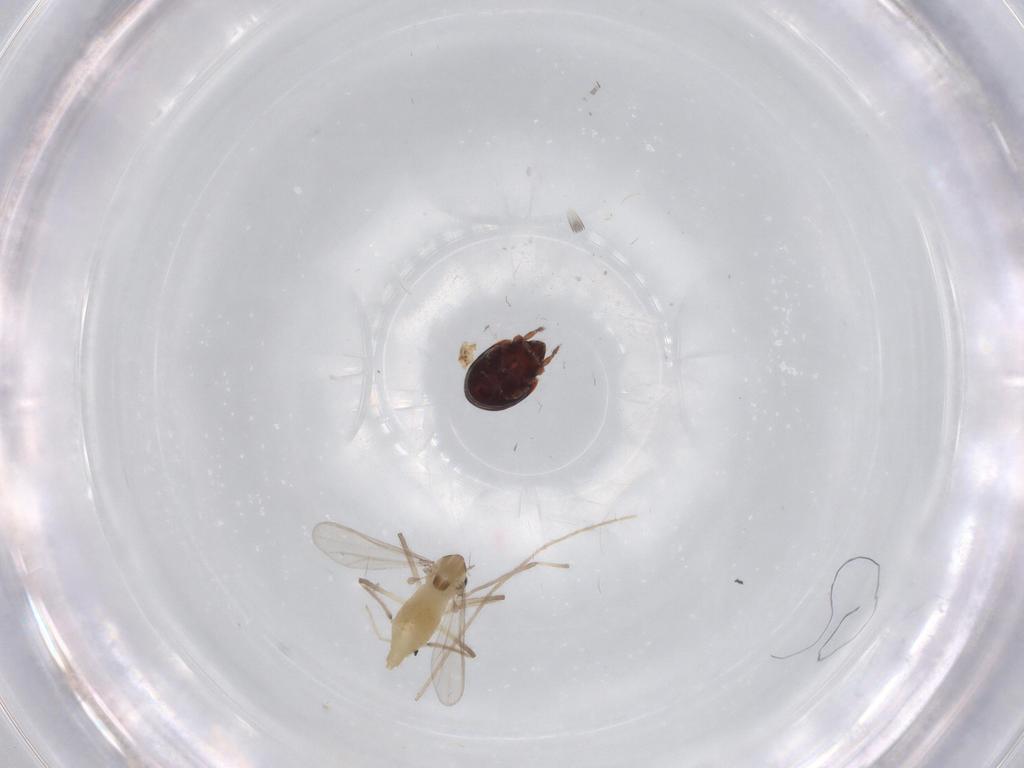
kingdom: Animalia
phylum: Arthropoda
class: Insecta
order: Diptera
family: Chironomidae
